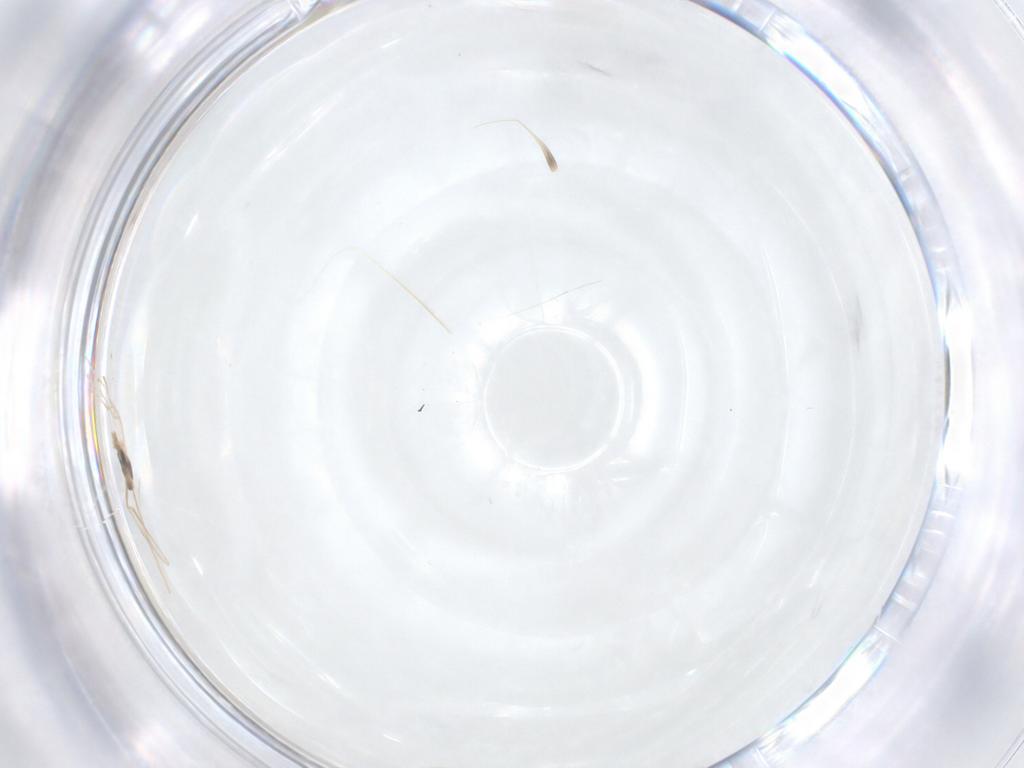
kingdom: Animalia
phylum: Arthropoda
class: Insecta
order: Diptera
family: Cecidomyiidae
